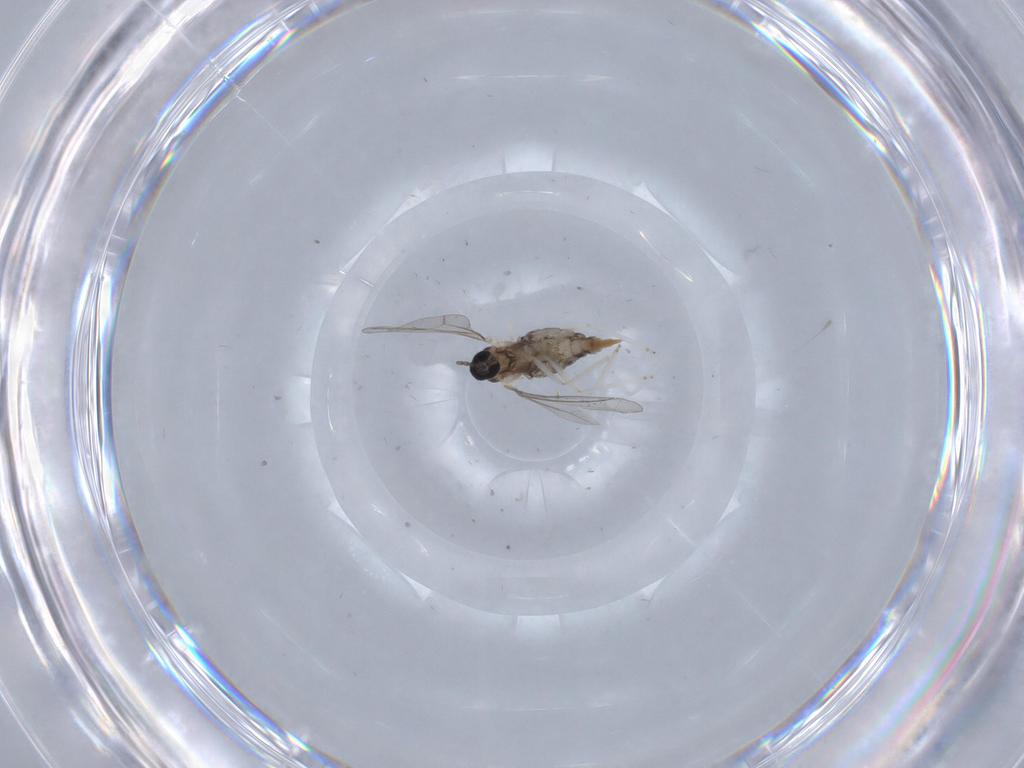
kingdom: Animalia
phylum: Arthropoda
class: Insecta
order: Diptera
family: Cecidomyiidae
